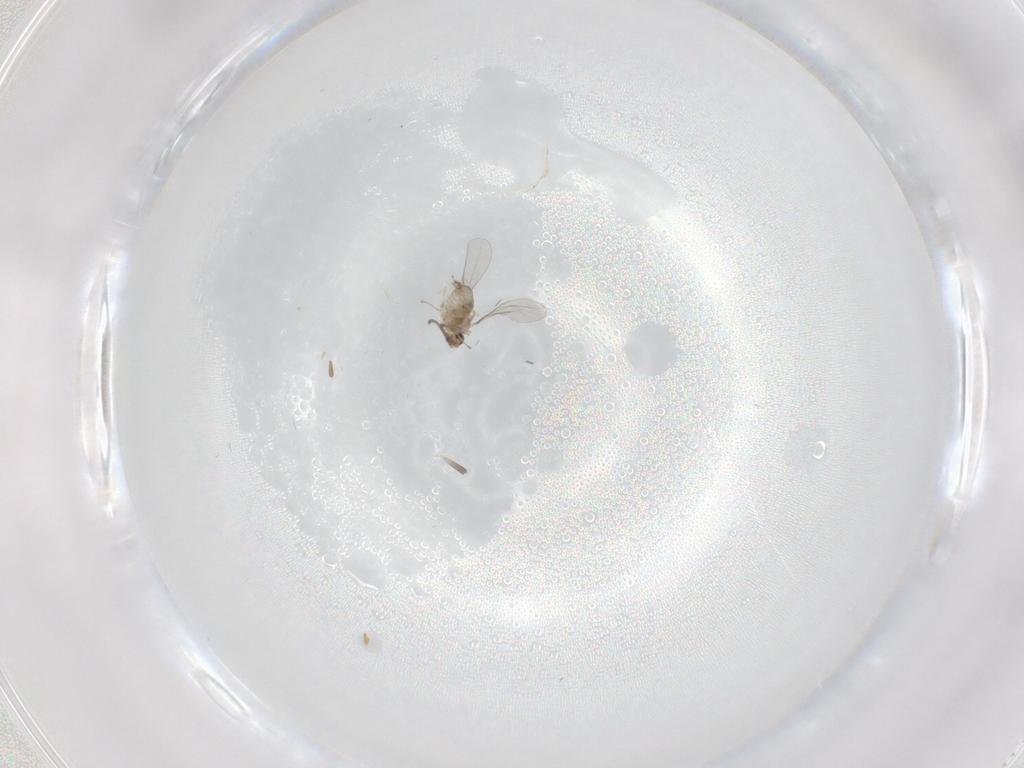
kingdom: Animalia
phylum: Arthropoda
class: Insecta
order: Diptera
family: Cecidomyiidae
